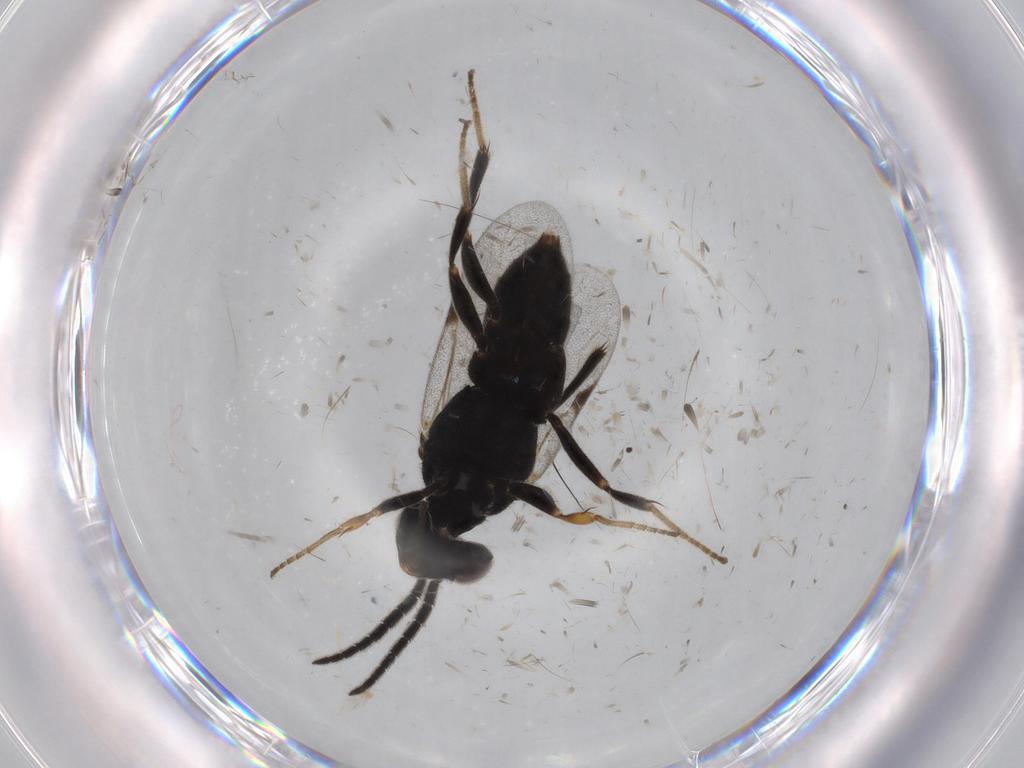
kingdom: Animalia
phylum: Arthropoda
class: Insecta
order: Hymenoptera
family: Dryinidae
